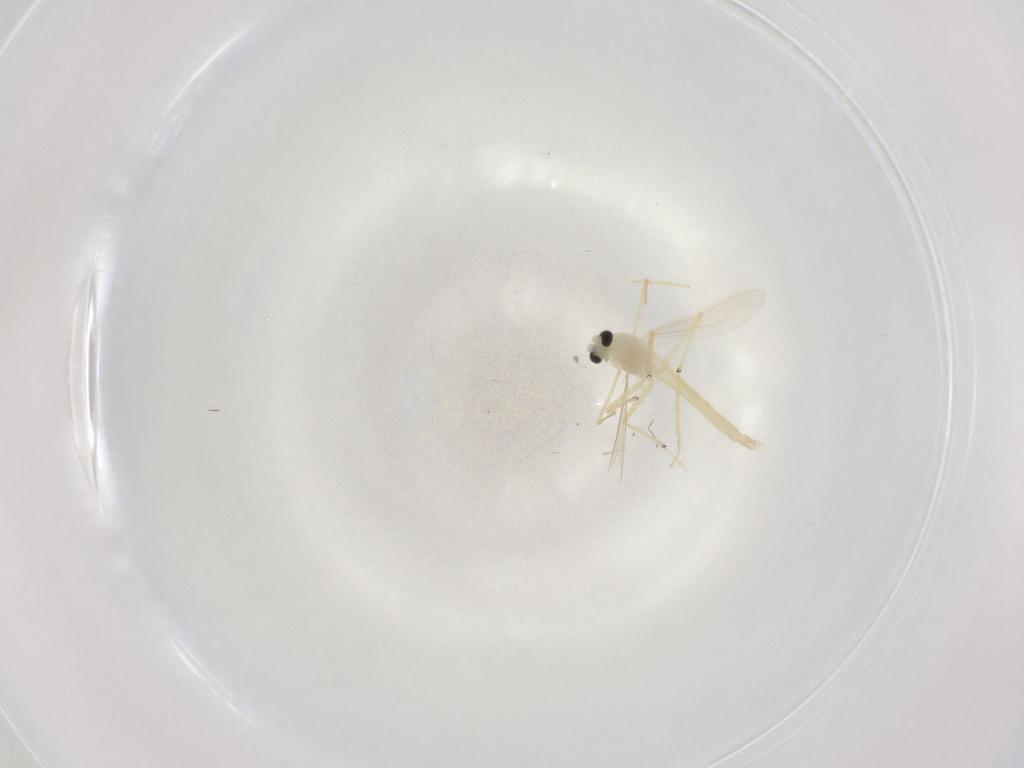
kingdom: Animalia
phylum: Arthropoda
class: Insecta
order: Diptera
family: Chironomidae
